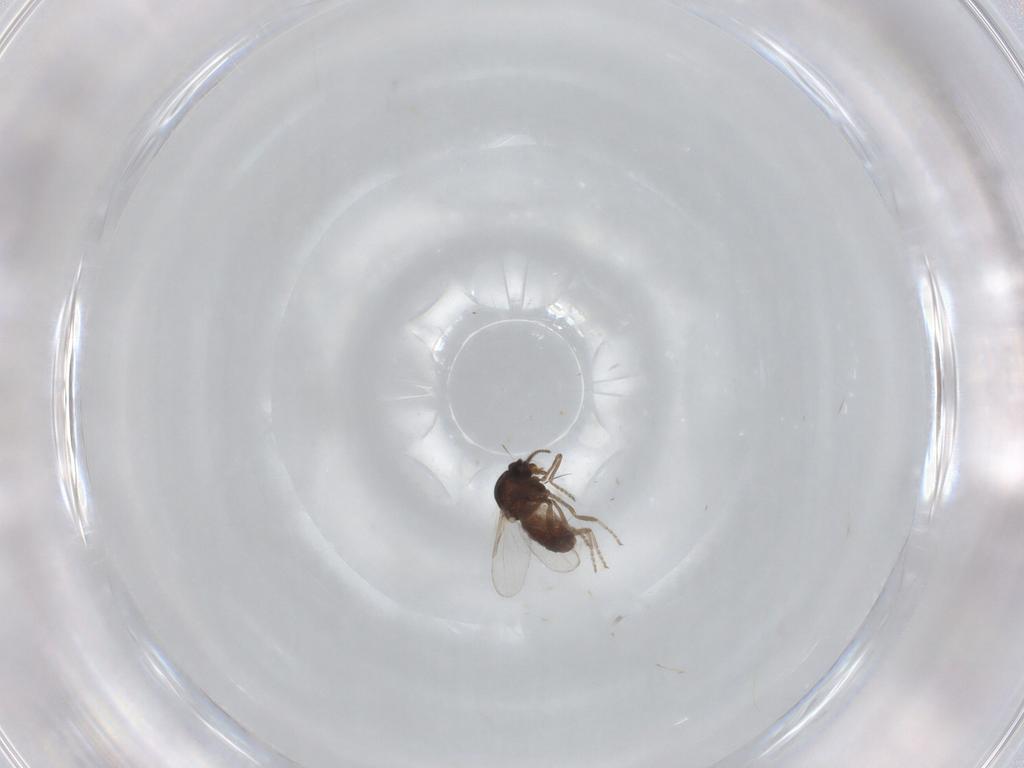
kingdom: Animalia
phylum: Arthropoda
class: Insecta
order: Diptera
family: Ceratopogonidae
